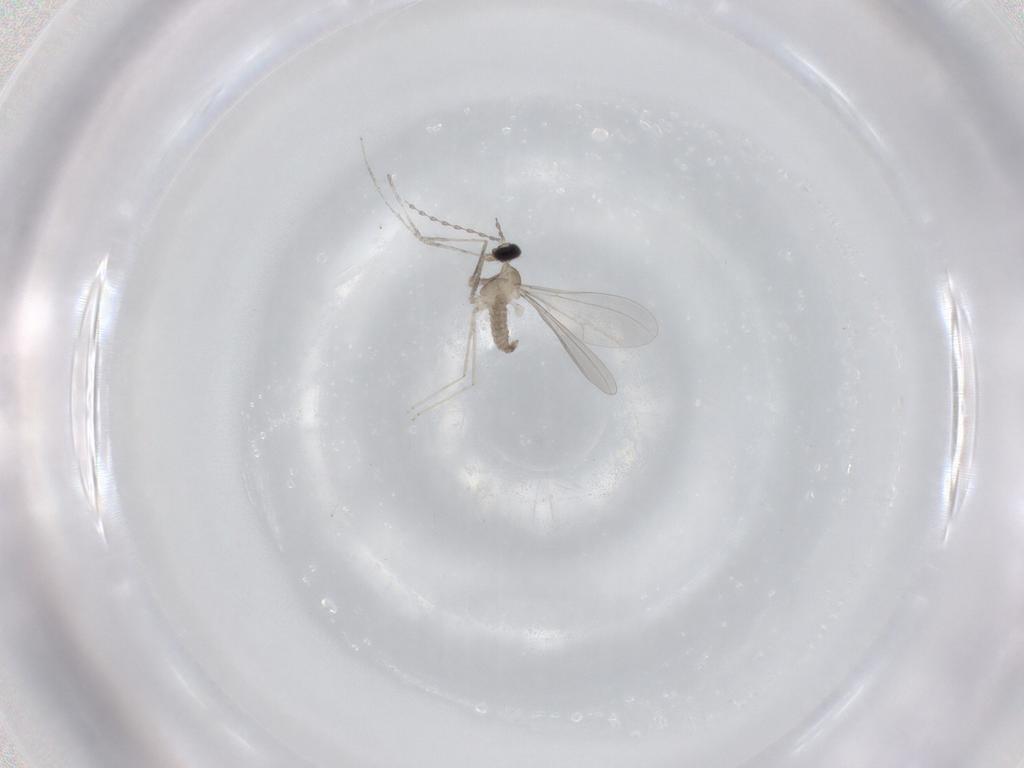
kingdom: Animalia
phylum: Arthropoda
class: Insecta
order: Diptera
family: Cecidomyiidae
